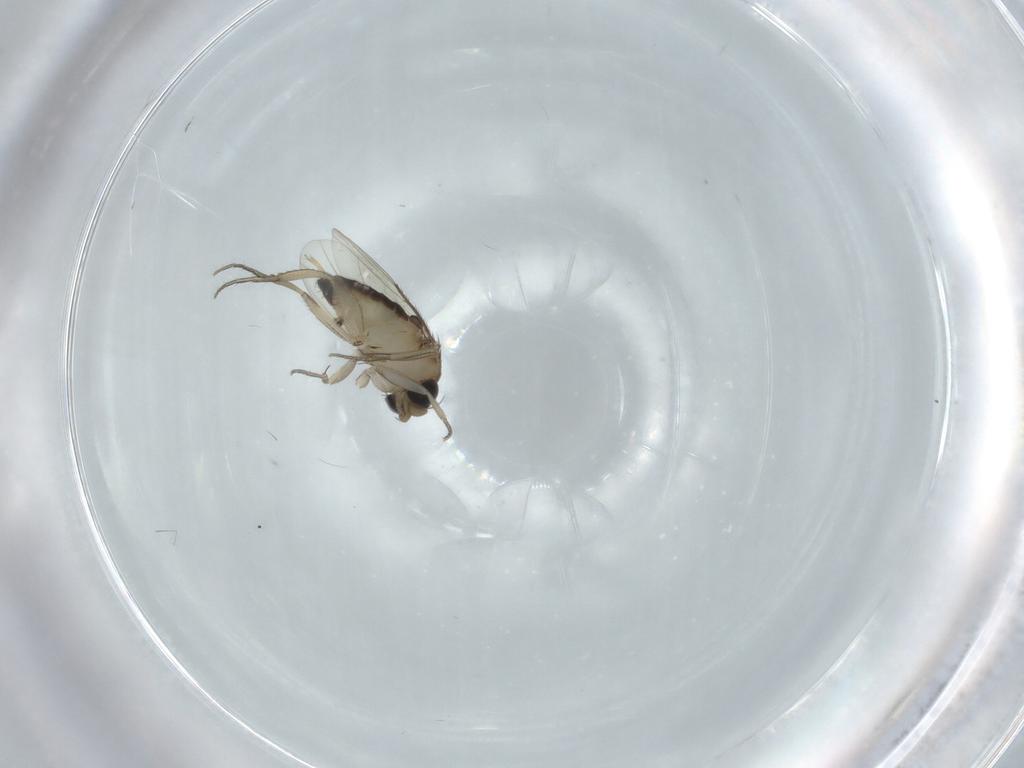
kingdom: Animalia
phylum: Arthropoda
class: Insecta
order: Diptera
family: Phoridae
